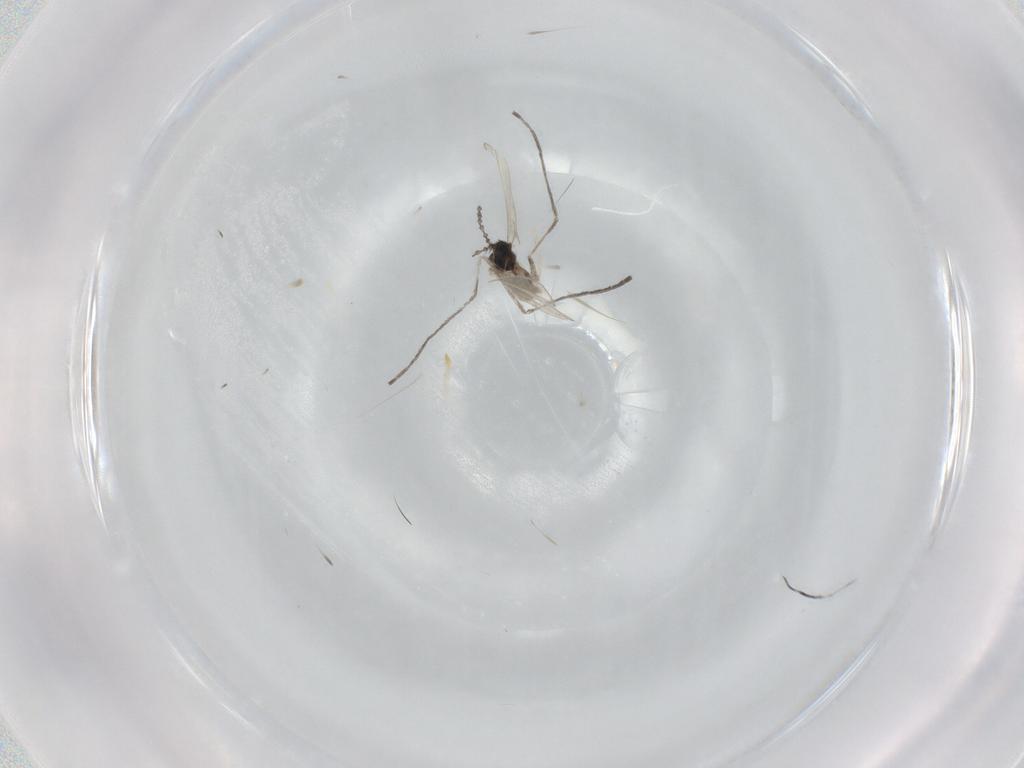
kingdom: Animalia
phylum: Arthropoda
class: Insecta
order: Diptera
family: Cecidomyiidae
